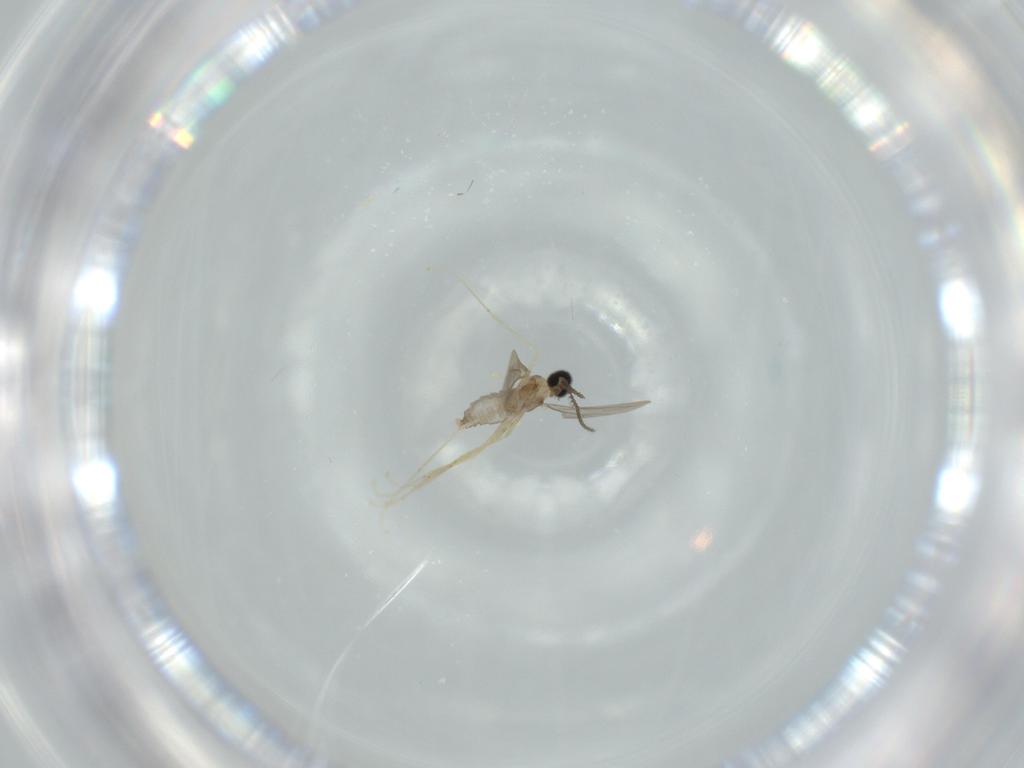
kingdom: Animalia
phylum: Arthropoda
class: Insecta
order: Diptera
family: Cecidomyiidae
